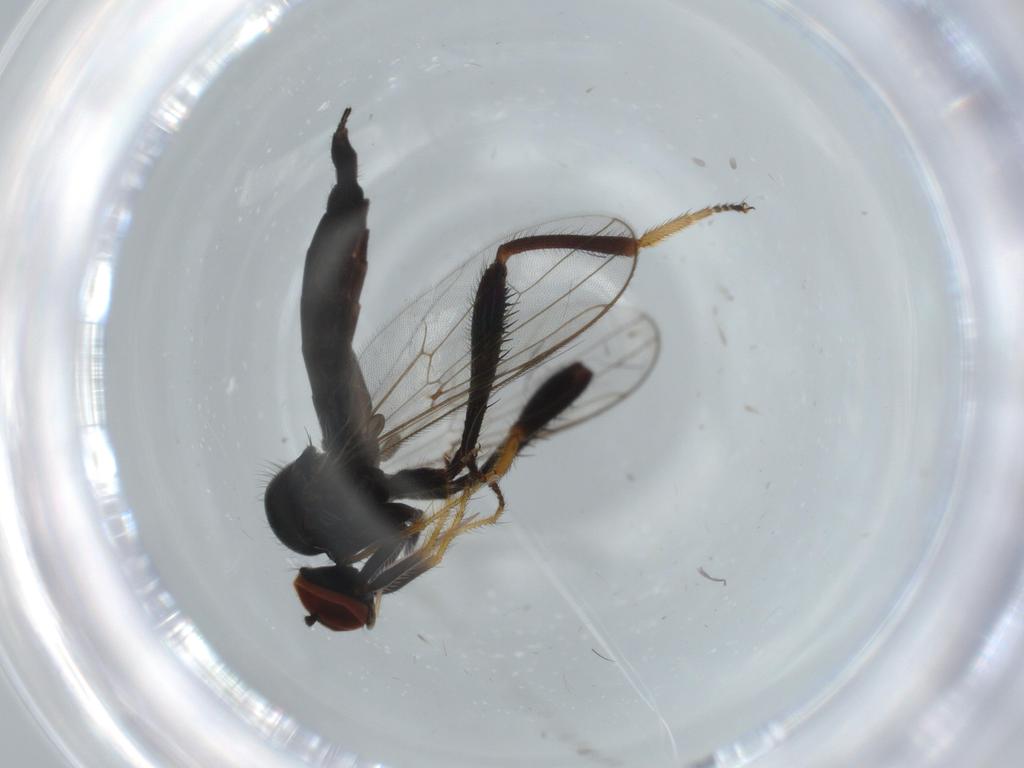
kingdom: Animalia
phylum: Arthropoda
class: Insecta
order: Diptera
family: Hybotidae
